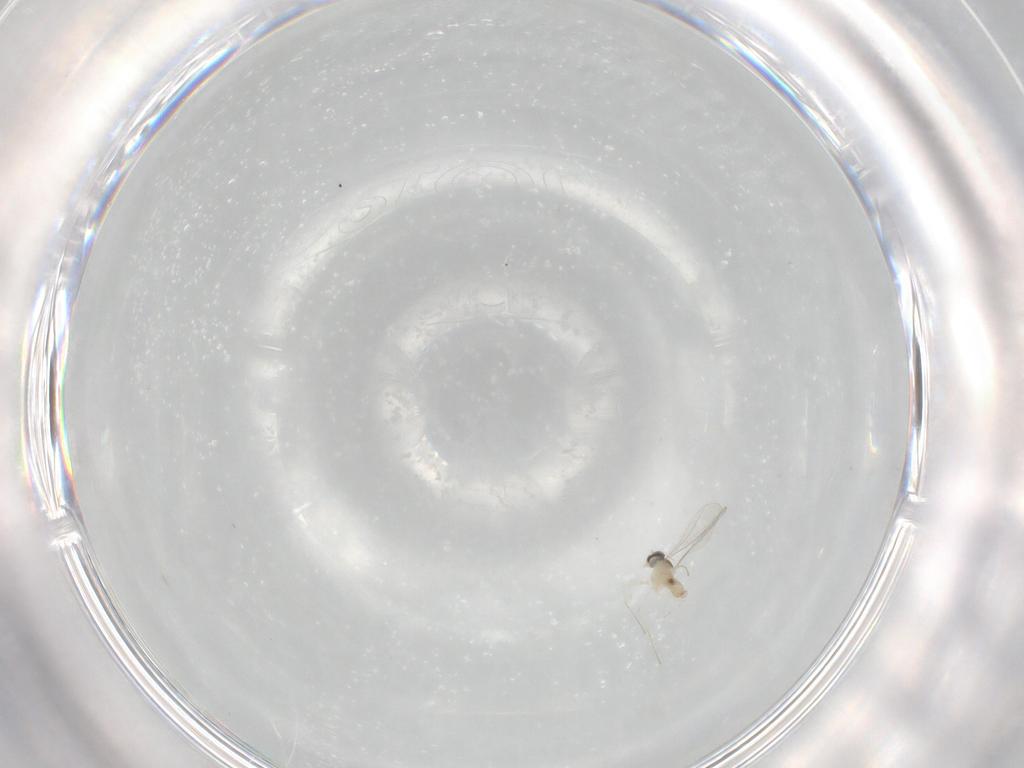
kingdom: Animalia
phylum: Arthropoda
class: Insecta
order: Diptera
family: Cecidomyiidae
